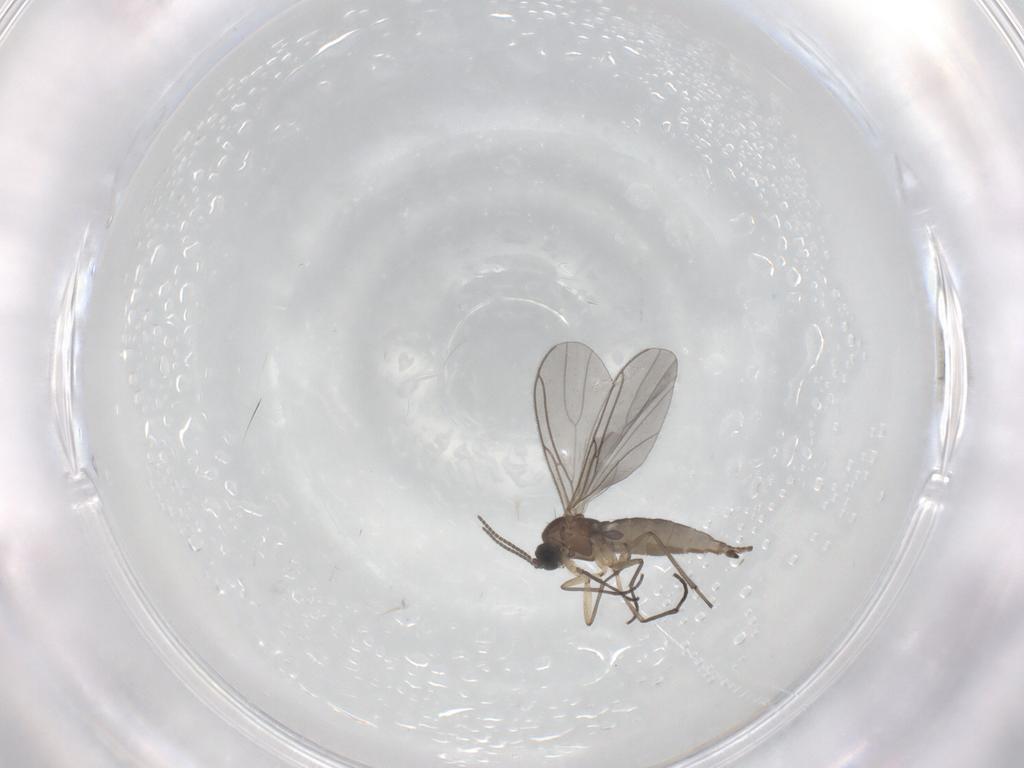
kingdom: Animalia
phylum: Arthropoda
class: Insecta
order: Diptera
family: Sciaridae
